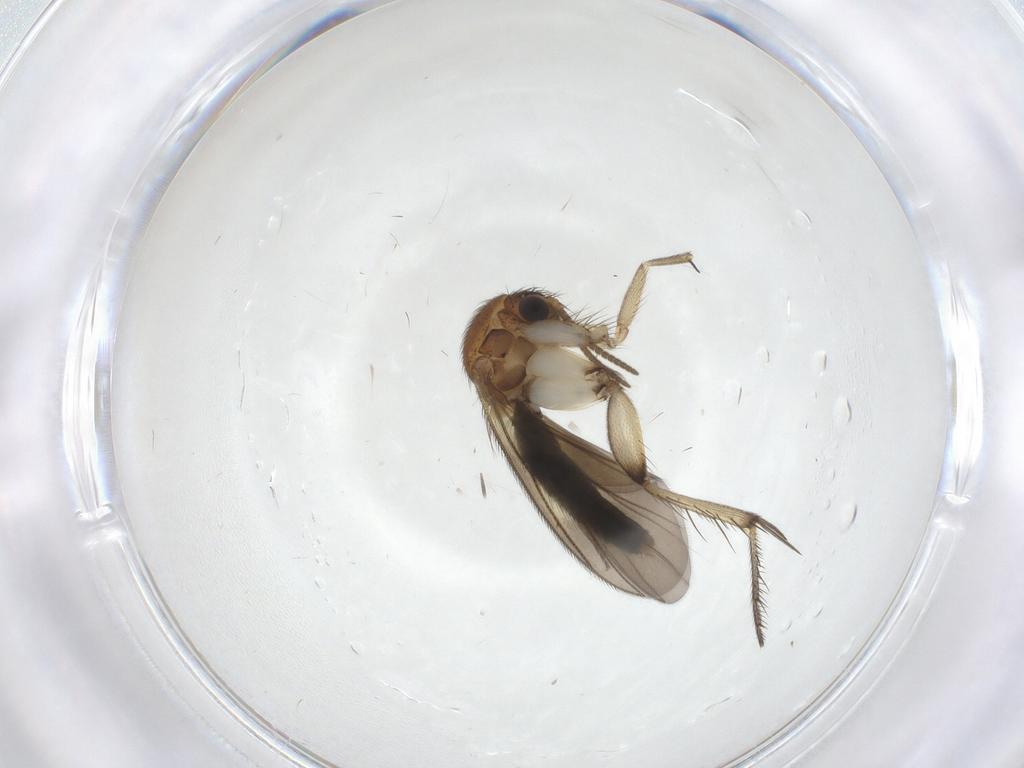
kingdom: Animalia
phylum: Arthropoda
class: Insecta
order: Diptera
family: Mycetophilidae
